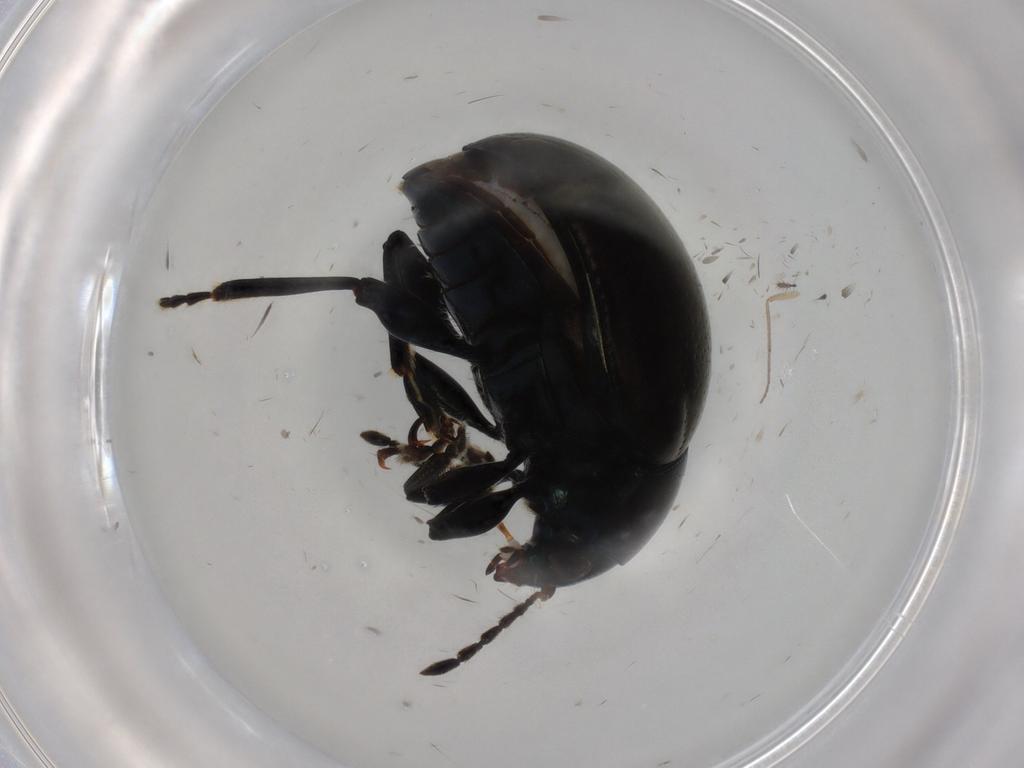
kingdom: Animalia
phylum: Arthropoda
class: Insecta
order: Coleoptera
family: Chrysomelidae
